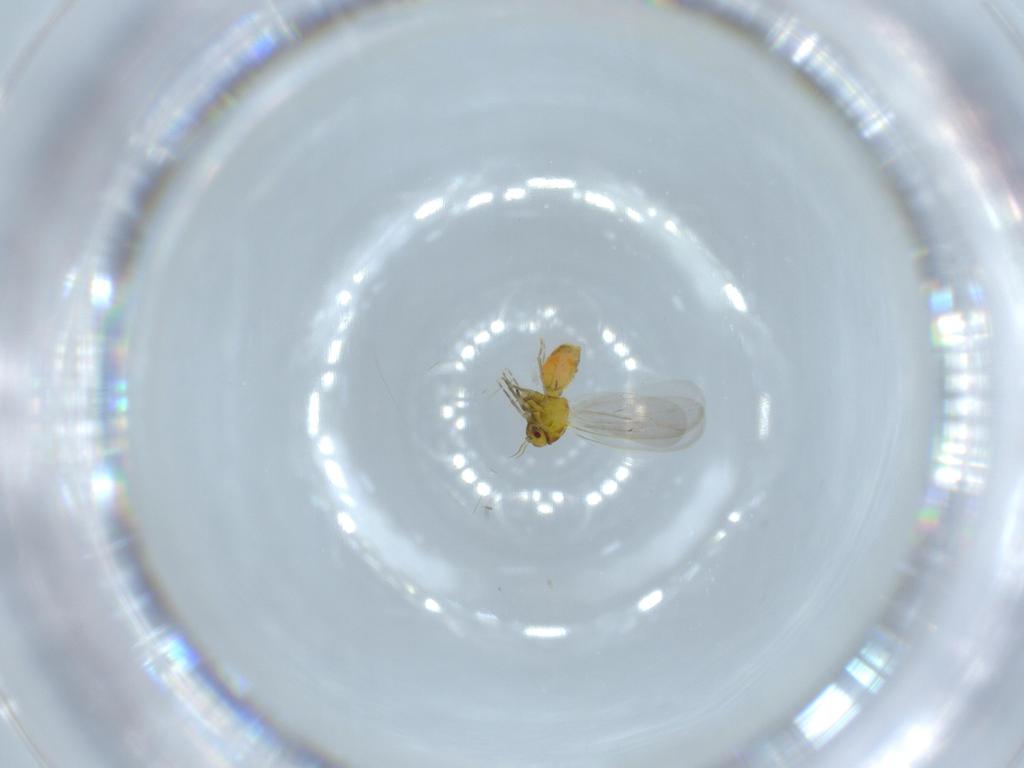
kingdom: Animalia
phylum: Arthropoda
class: Insecta
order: Hemiptera
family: Aleyrodidae
